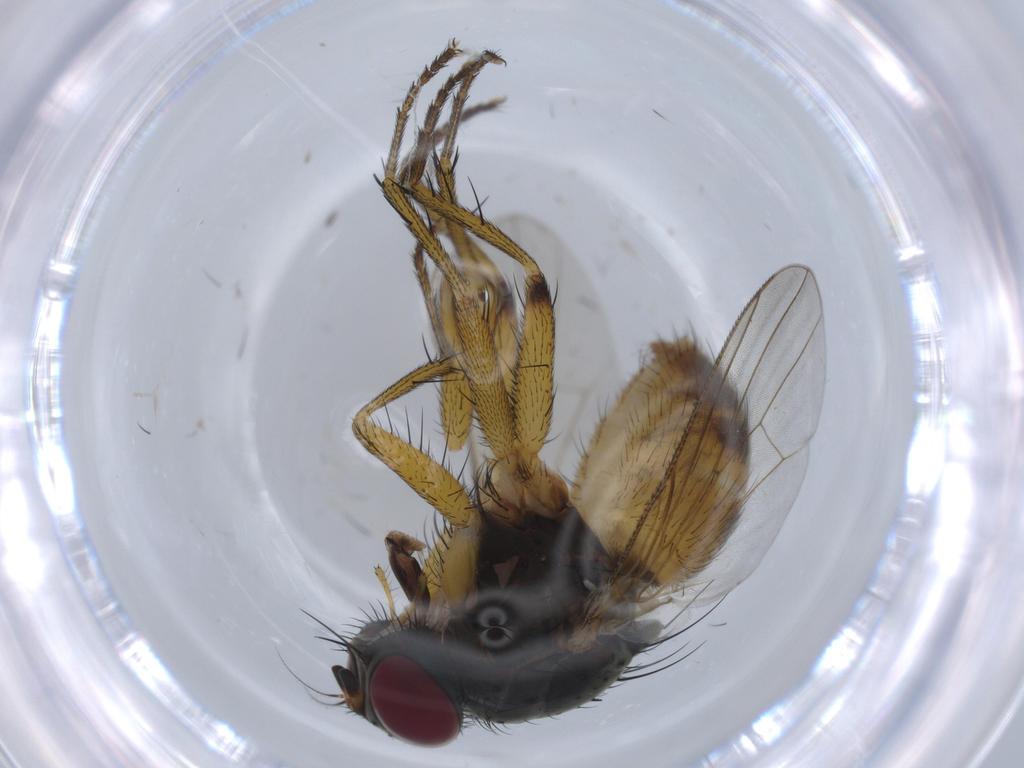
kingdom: Animalia
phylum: Arthropoda
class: Insecta
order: Diptera
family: Muscidae
